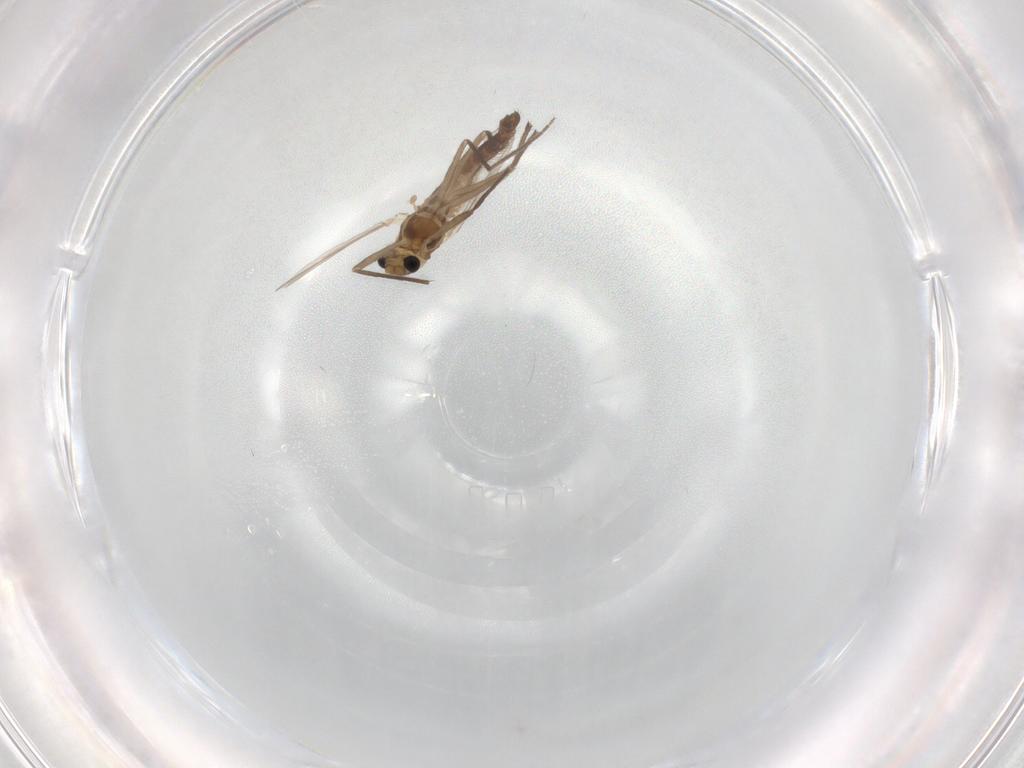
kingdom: Animalia
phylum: Arthropoda
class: Insecta
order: Diptera
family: Chironomidae
